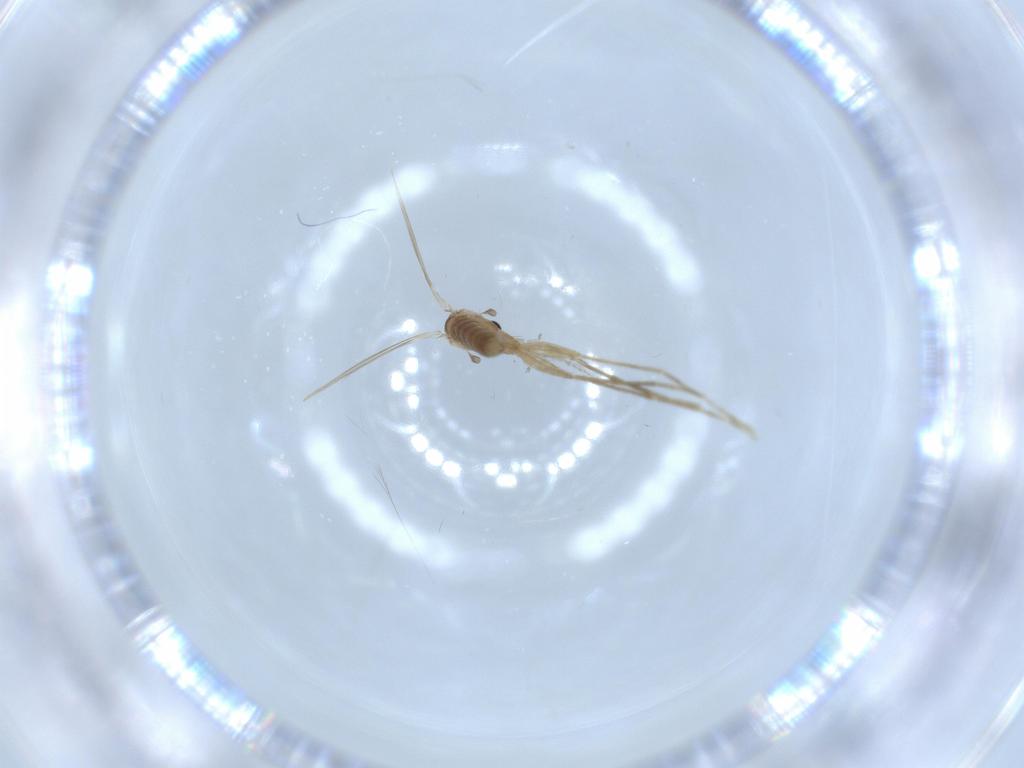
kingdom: Animalia
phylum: Arthropoda
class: Insecta
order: Diptera
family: Psychodidae
